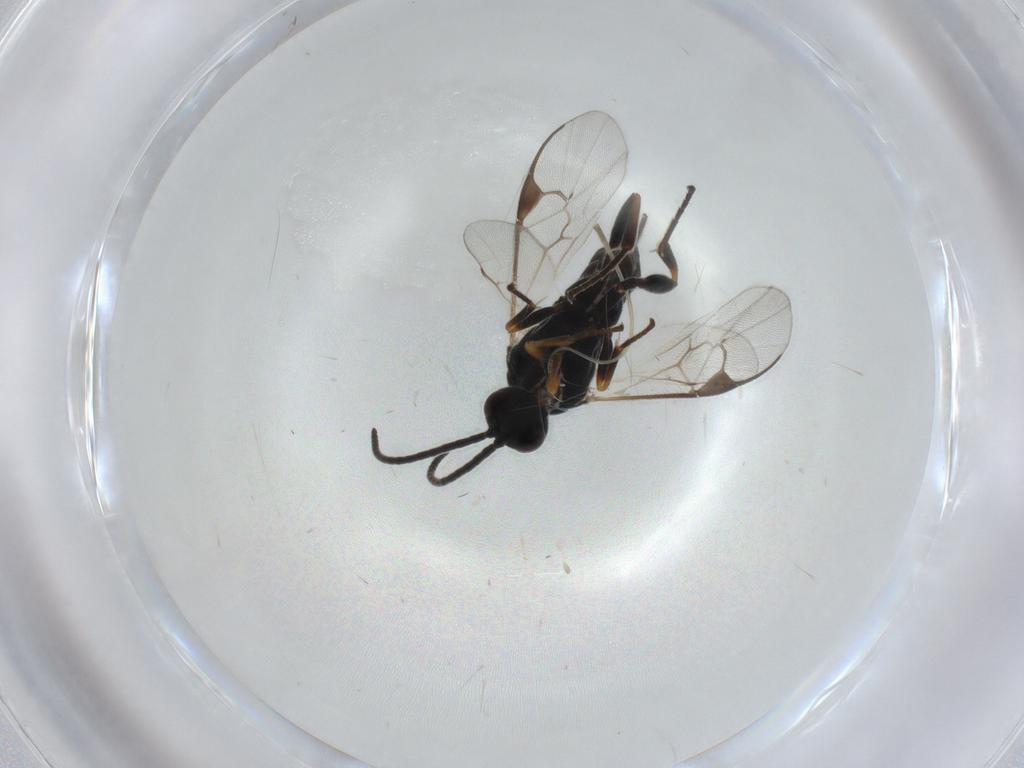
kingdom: Animalia
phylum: Arthropoda
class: Insecta
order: Hymenoptera
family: Braconidae
